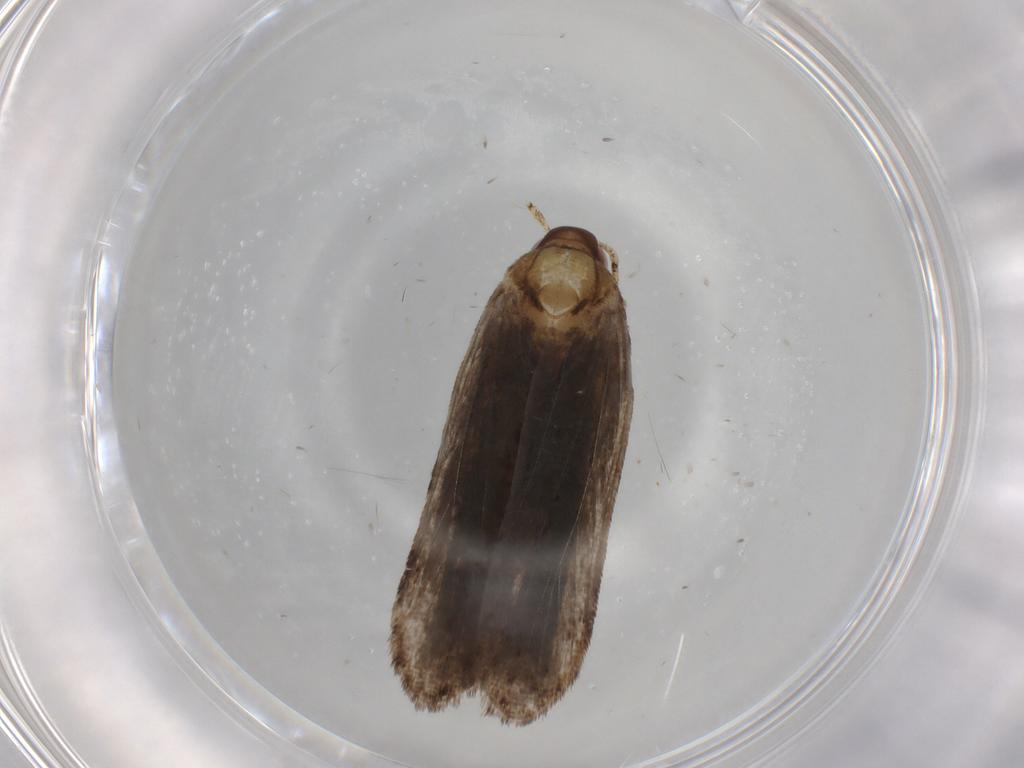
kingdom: Animalia
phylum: Arthropoda
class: Insecta
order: Lepidoptera
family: Gelechiidae
